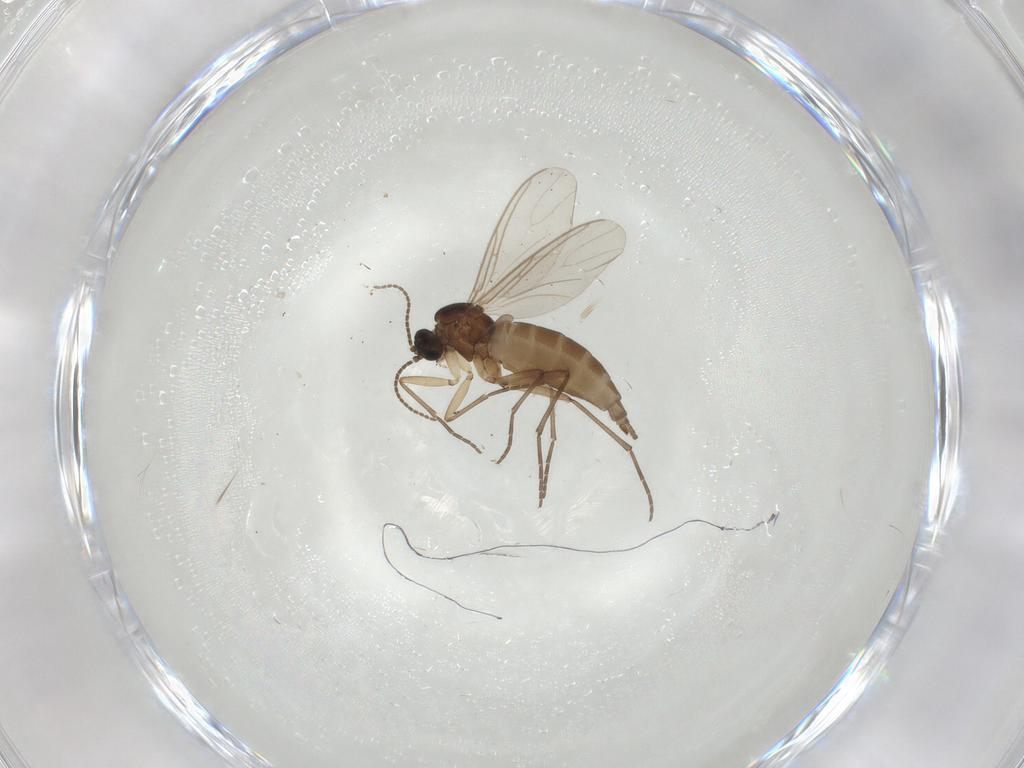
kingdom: Animalia
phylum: Arthropoda
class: Insecta
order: Diptera
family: Sciaridae
